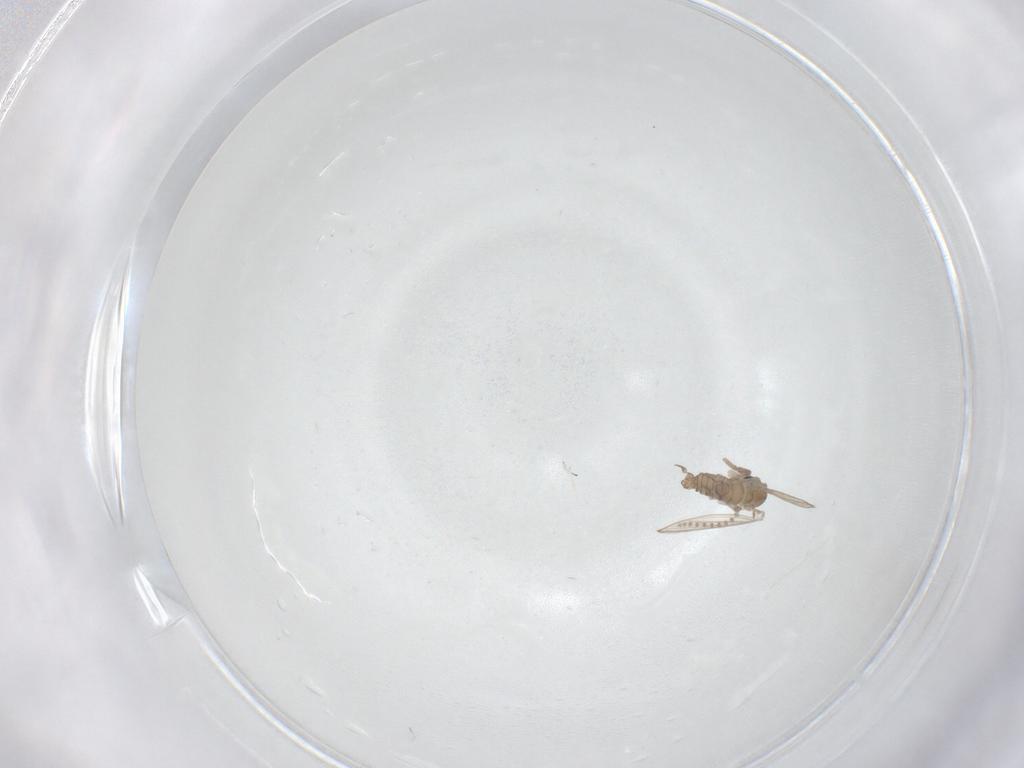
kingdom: Animalia
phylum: Arthropoda
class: Insecta
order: Diptera
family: Psychodidae
